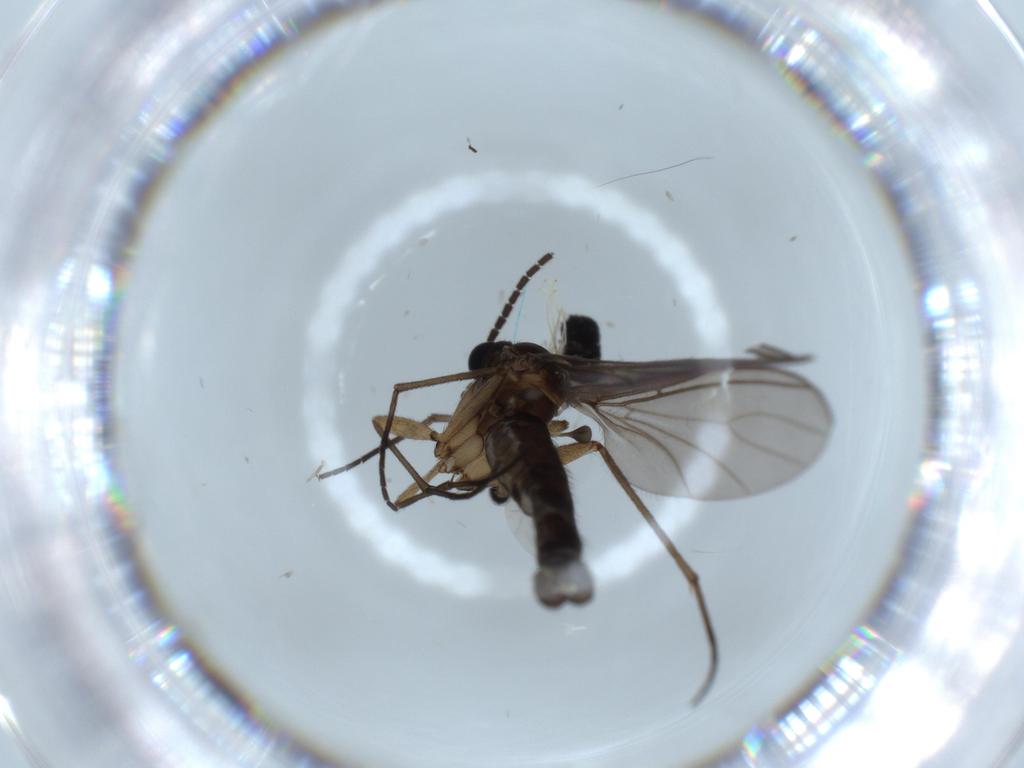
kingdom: Animalia
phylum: Arthropoda
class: Insecta
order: Diptera
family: Sciaridae
